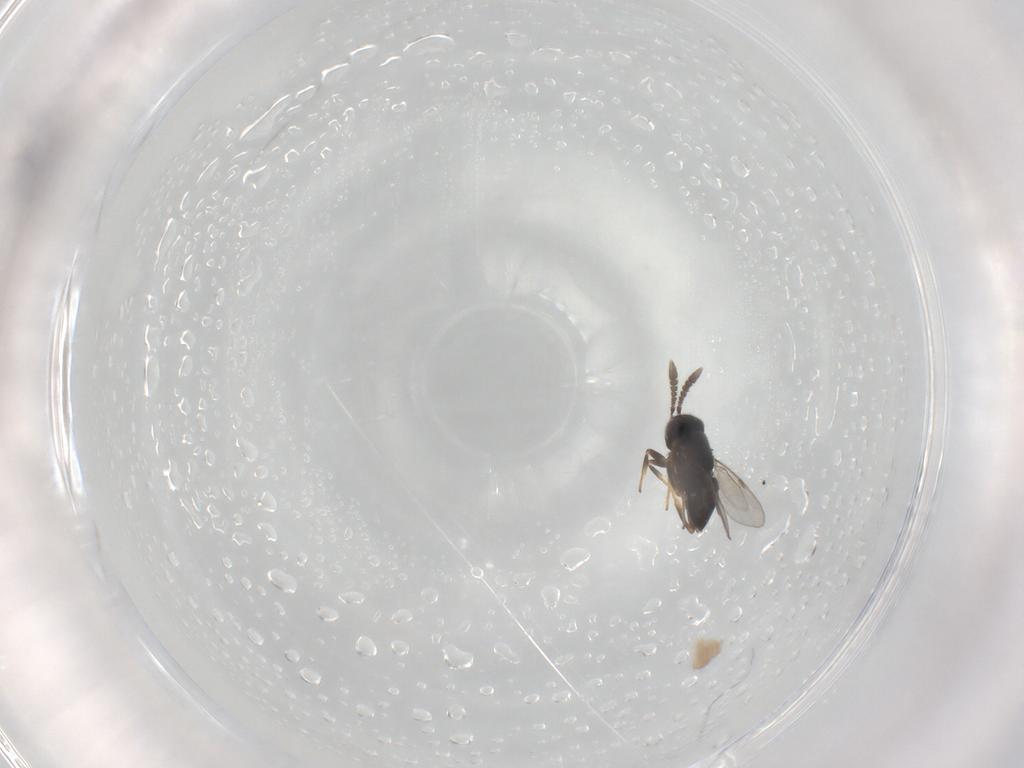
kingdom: Animalia
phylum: Arthropoda
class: Insecta
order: Hymenoptera
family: Encyrtidae
